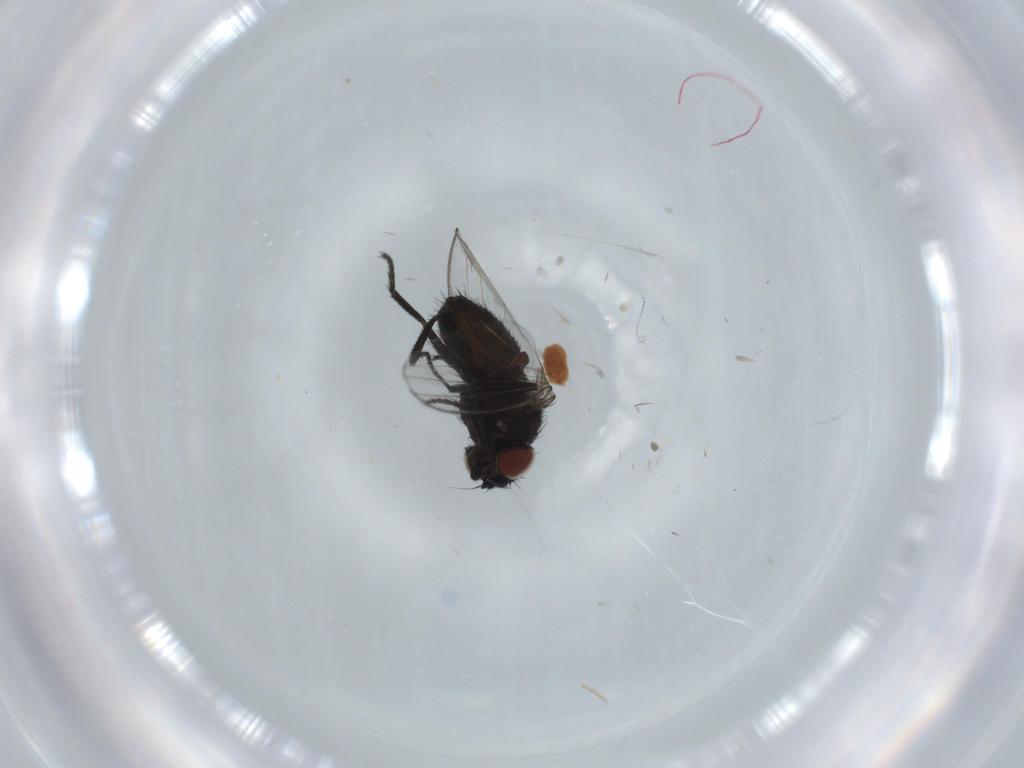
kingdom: Animalia
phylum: Arthropoda
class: Insecta
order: Diptera
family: Milichiidae
